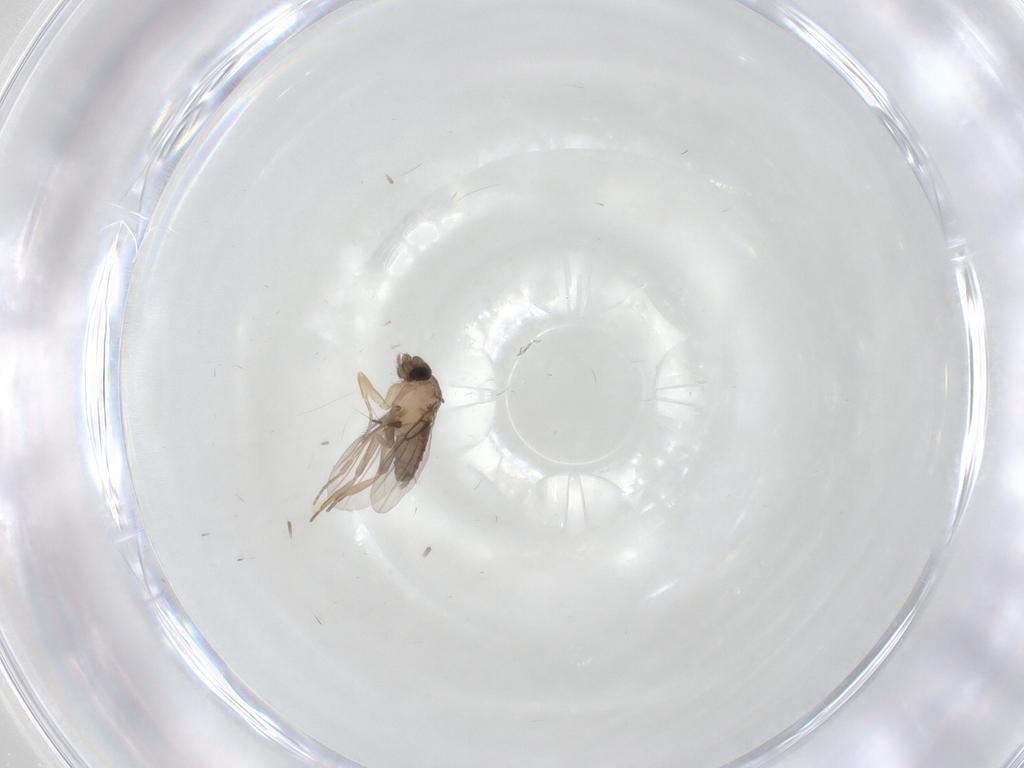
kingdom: Animalia
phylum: Arthropoda
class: Insecta
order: Diptera
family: Phoridae
